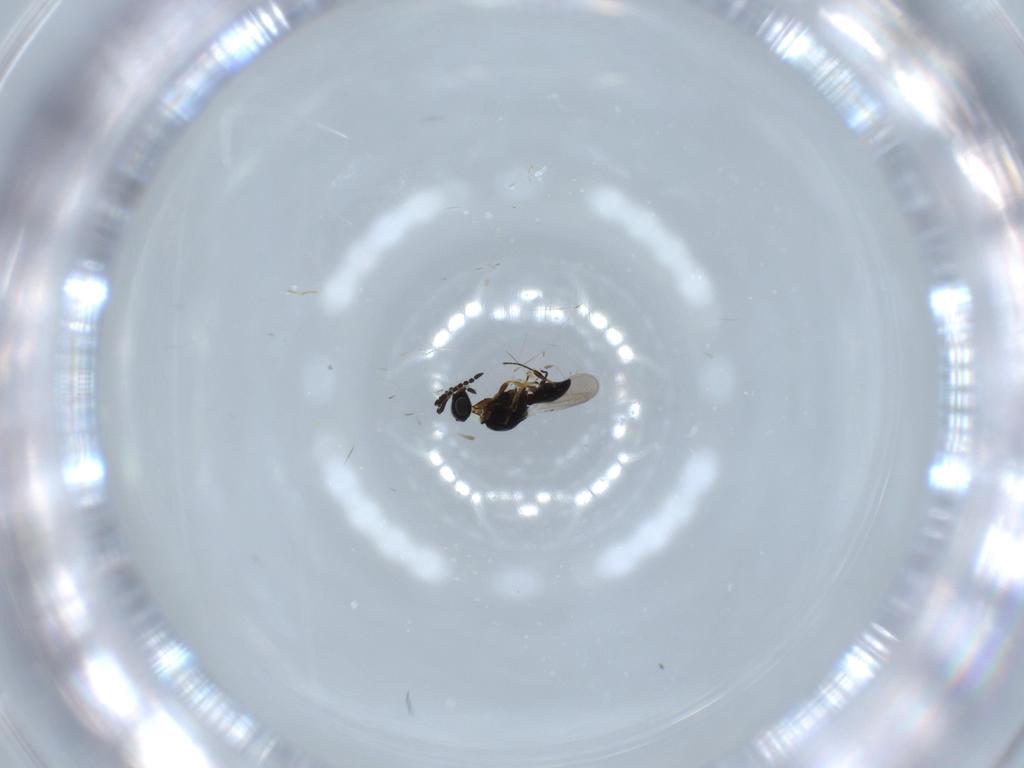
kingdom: Animalia
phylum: Arthropoda
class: Insecta
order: Hymenoptera
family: Platygastridae
